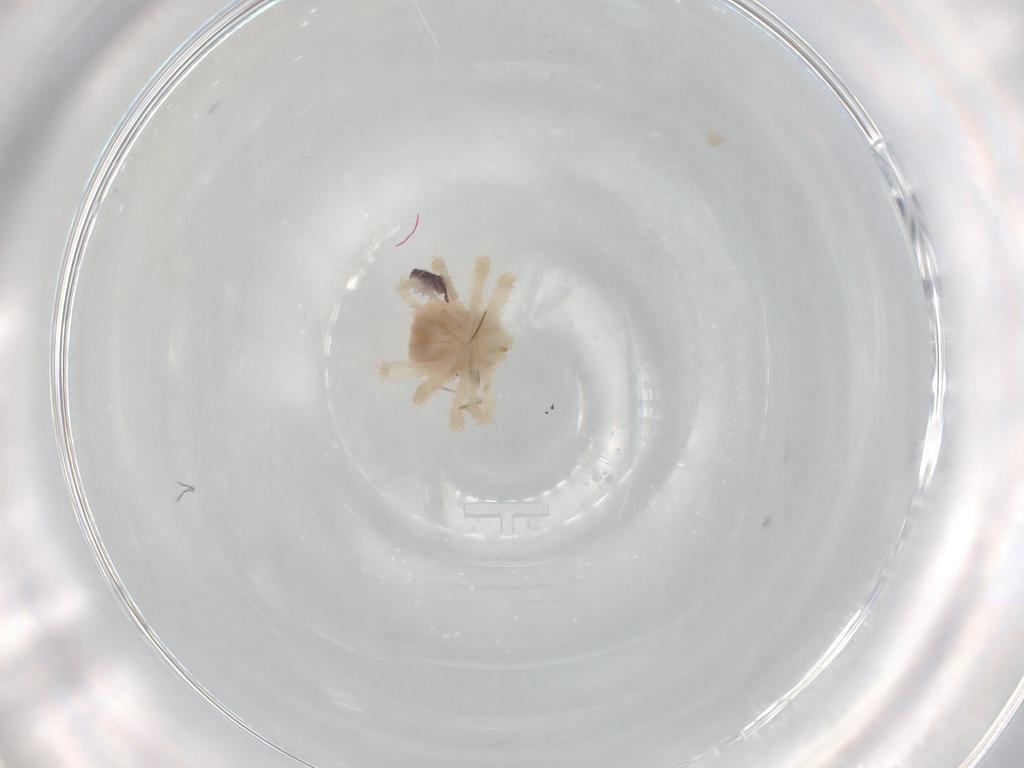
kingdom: Animalia
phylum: Arthropoda
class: Arachnida
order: Trombidiformes
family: Anystidae
